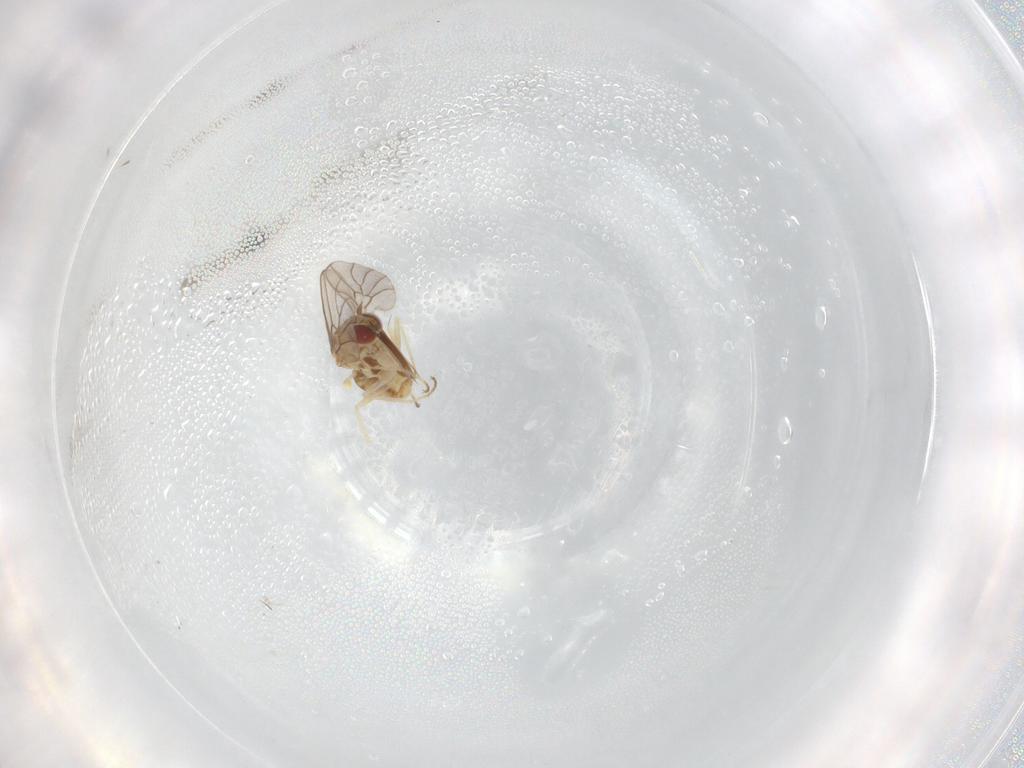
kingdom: Animalia
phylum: Arthropoda
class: Insecta
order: Diptera
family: Bombyliidae
